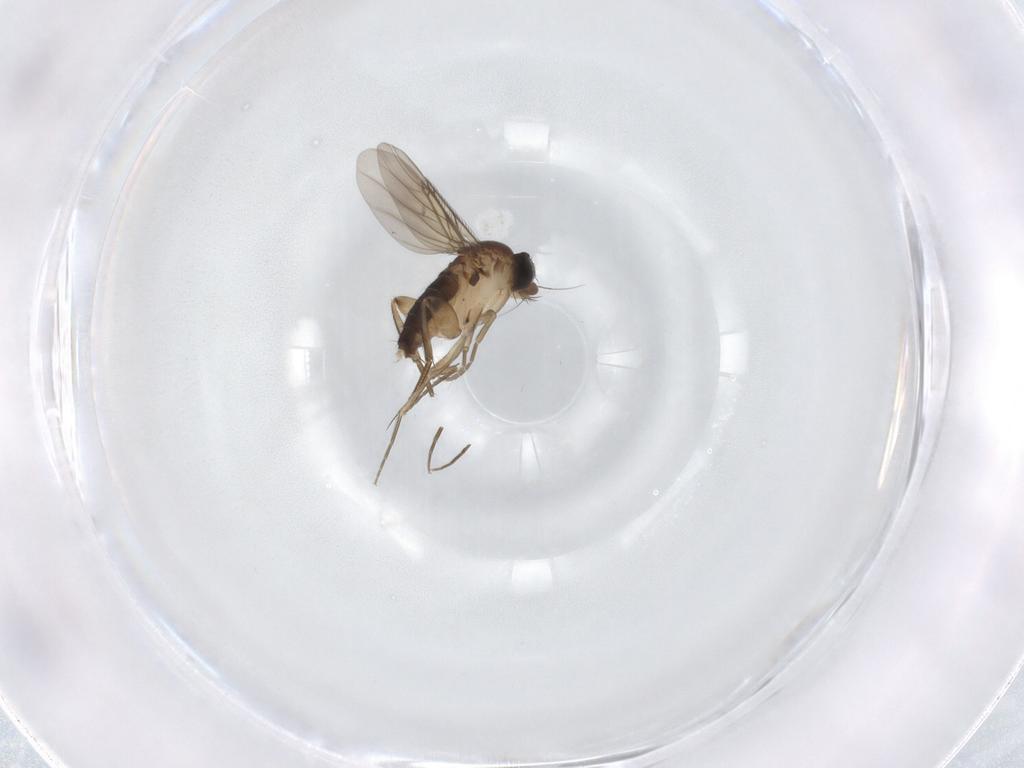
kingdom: Animalia
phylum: Arthropoda
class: Insecta
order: Diptera
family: Phoridae
